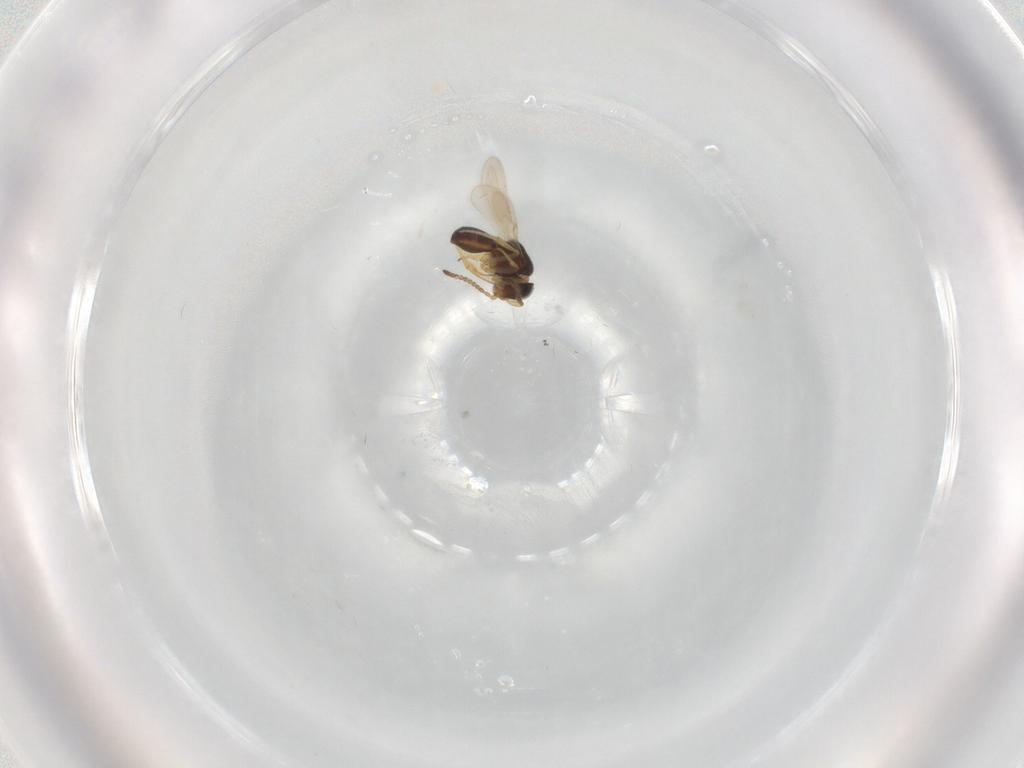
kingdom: Animalia
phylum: Arthropoda
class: Insecta
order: Hymenoptera
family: Scelionidae
